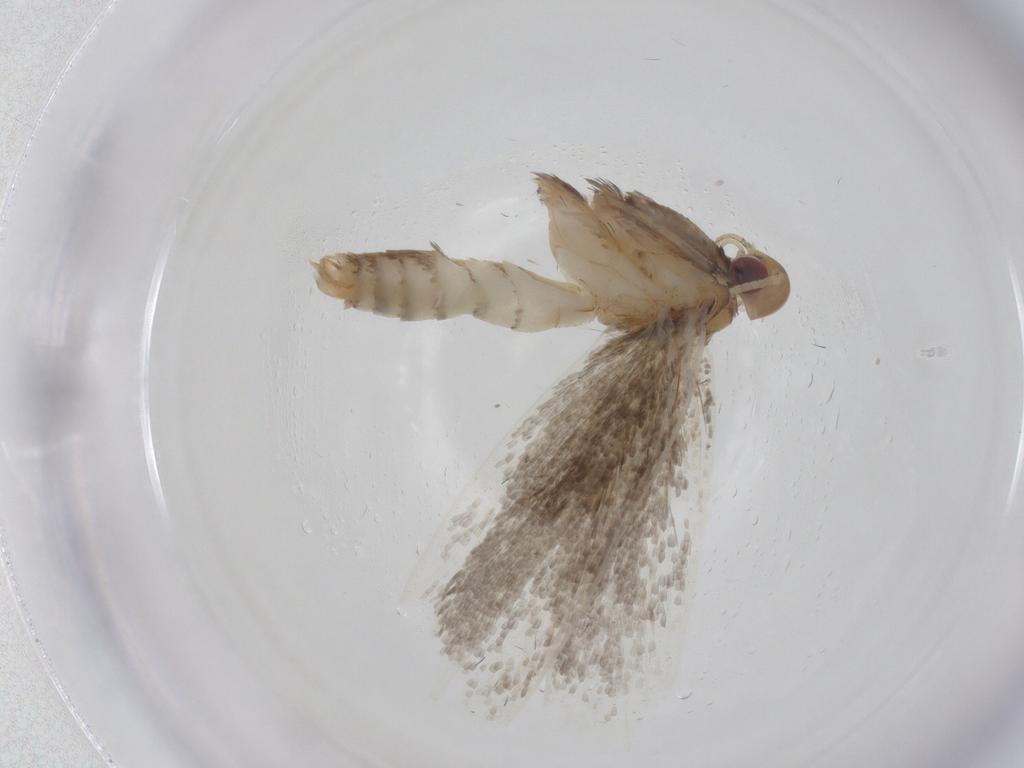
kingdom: Animalia
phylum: Arthropoda
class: Insecta
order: Lepidoptera
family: Gelechiidae
